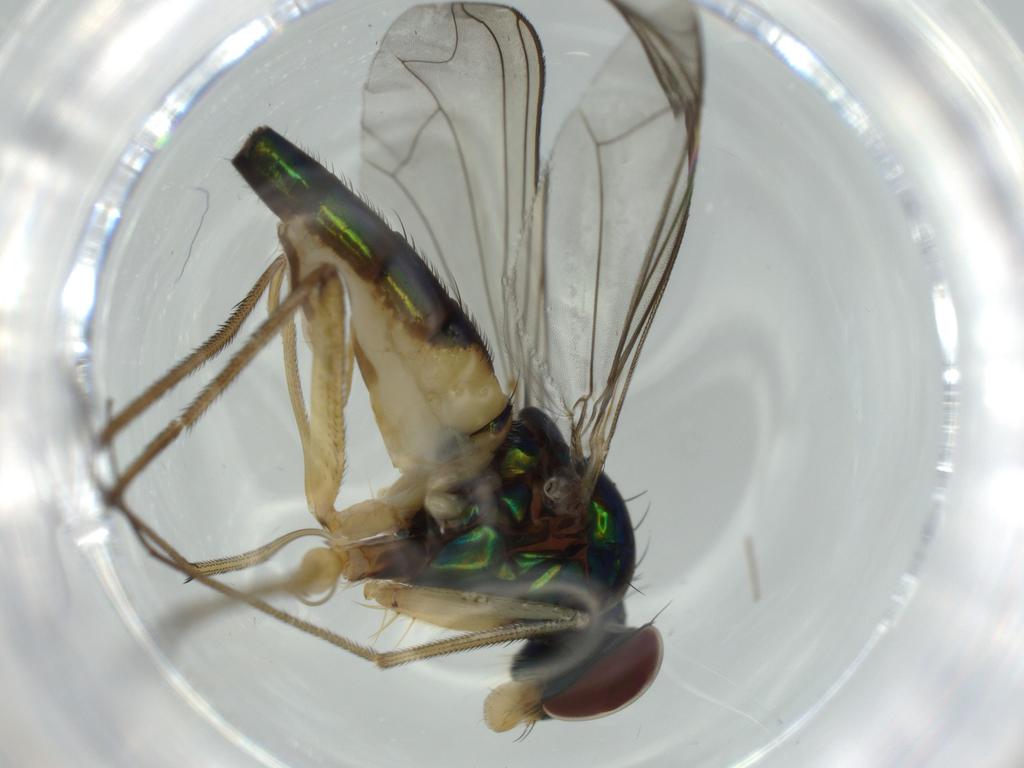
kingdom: Animalia
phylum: Arthropoda
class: Insecta
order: Diptera
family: Dolichopodidae
